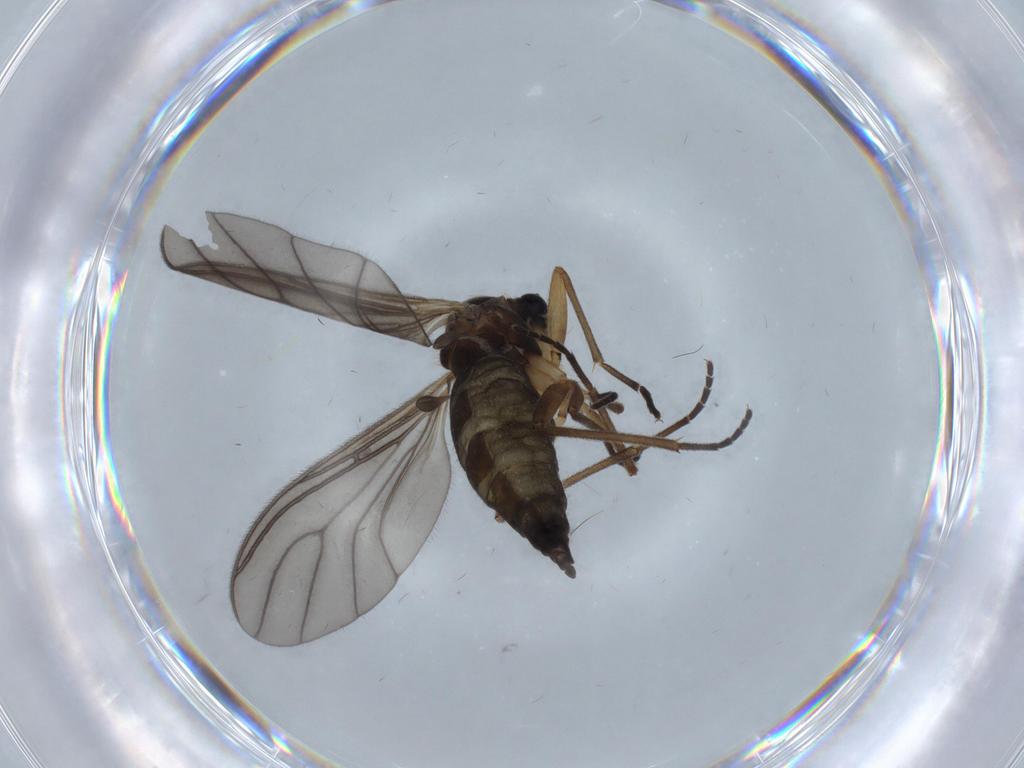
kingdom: Animalia
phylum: Arthropoda
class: Insecta
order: Diptera
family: Sciaridae
